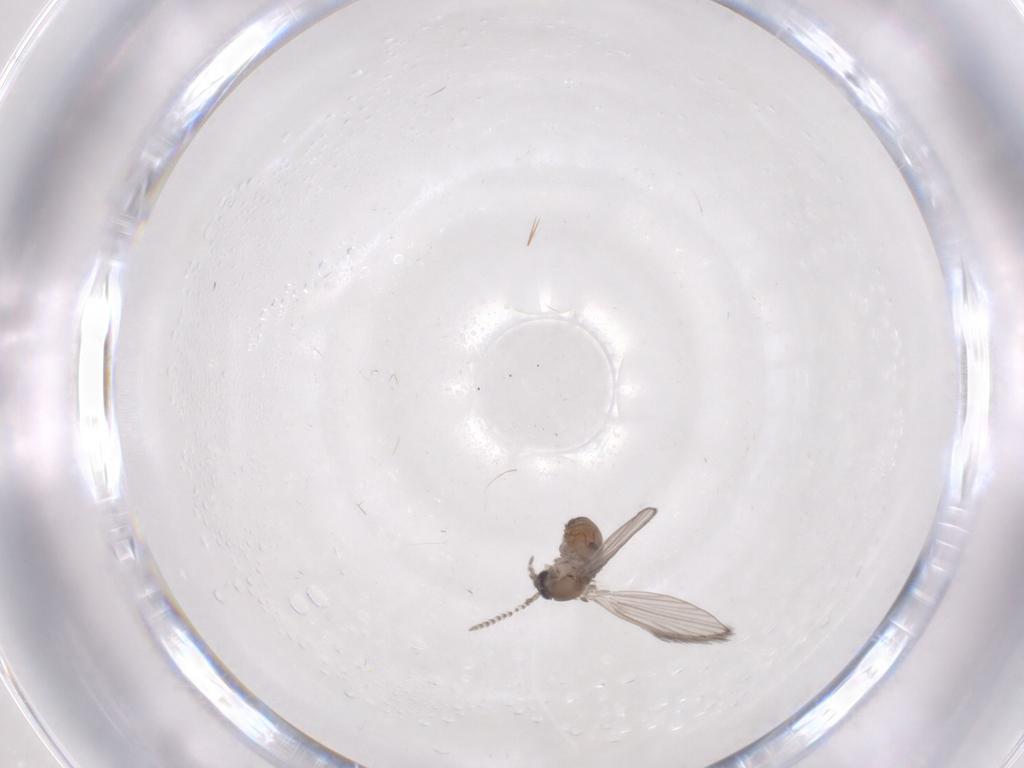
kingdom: Animalia
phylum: Arthropoda
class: Insecta
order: Diptera
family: Psychodidae
